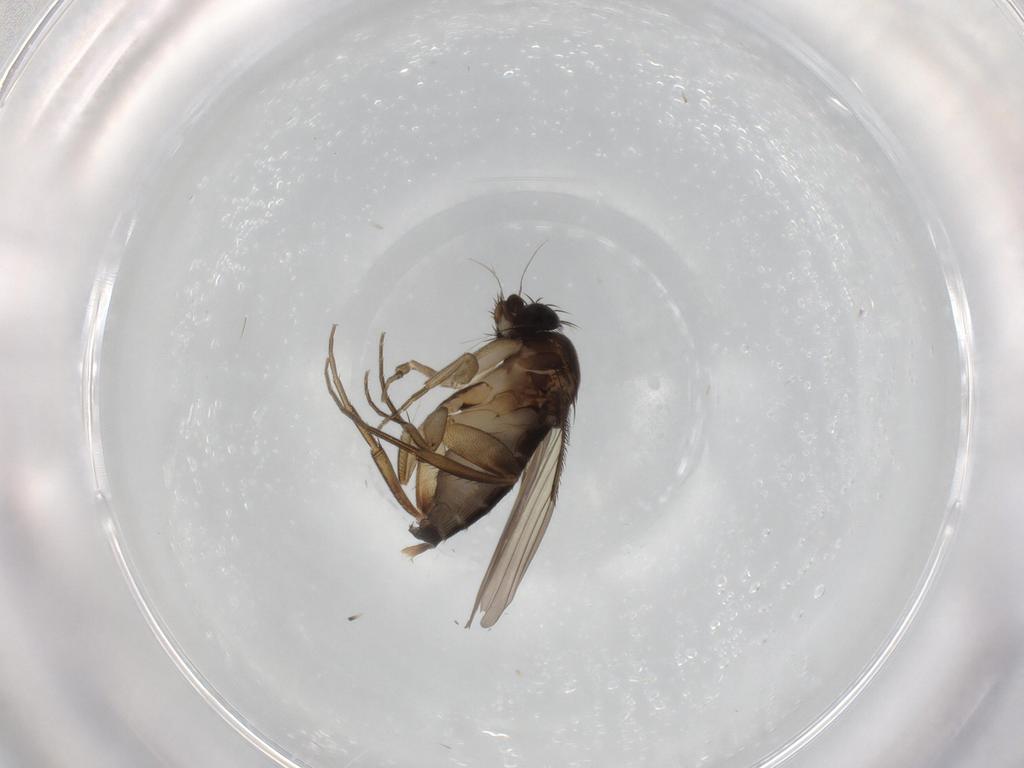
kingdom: Animalia
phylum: Arthropoda
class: Insecta
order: Diptera
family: Phoridae
